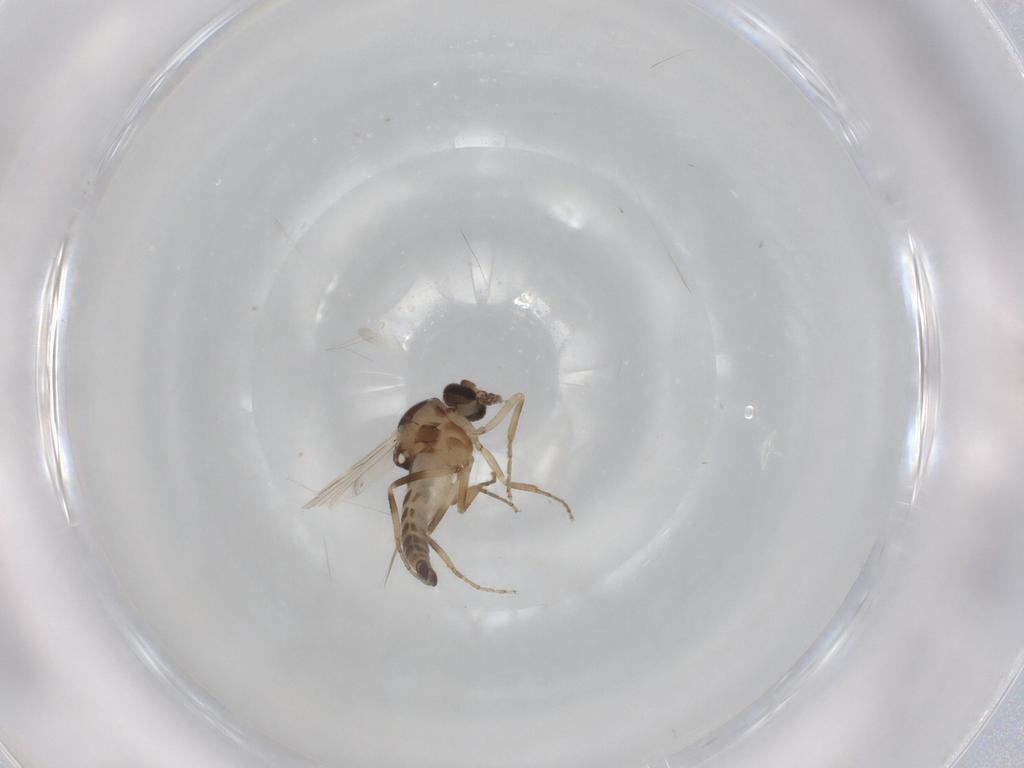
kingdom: Animalia
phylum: Arthropoda
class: Insecta
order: Diptera
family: Ceratopogonidae
